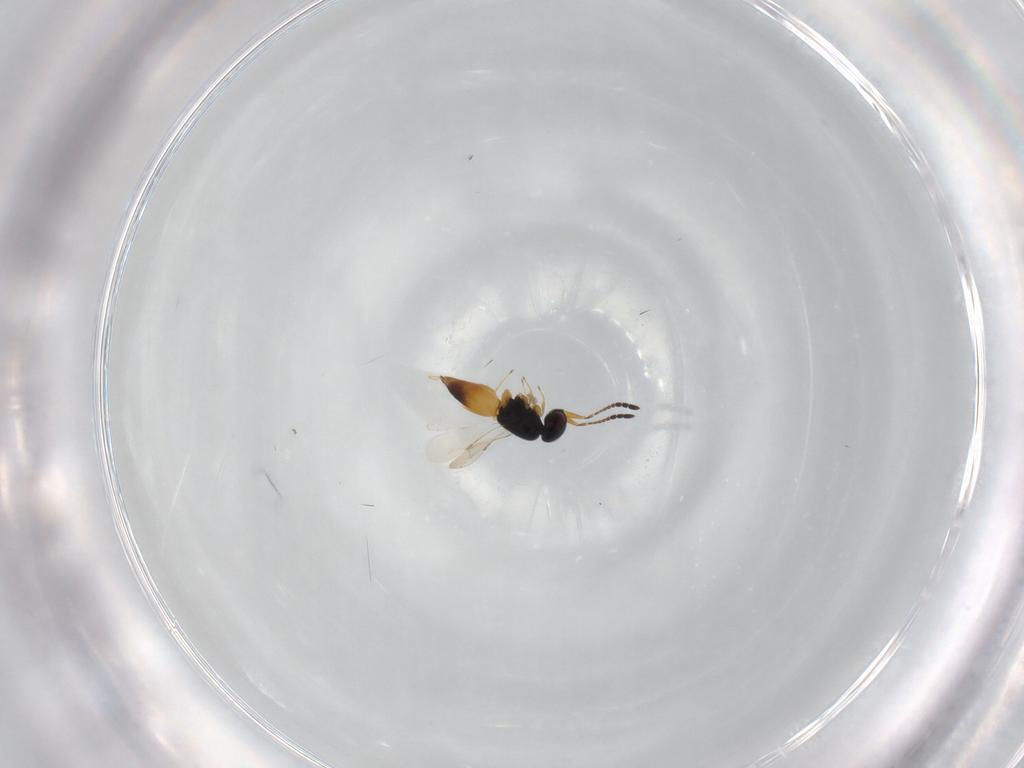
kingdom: Animalia
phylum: Arthropoda
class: Insecta
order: Hymenoptera
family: Ceraphronidae
